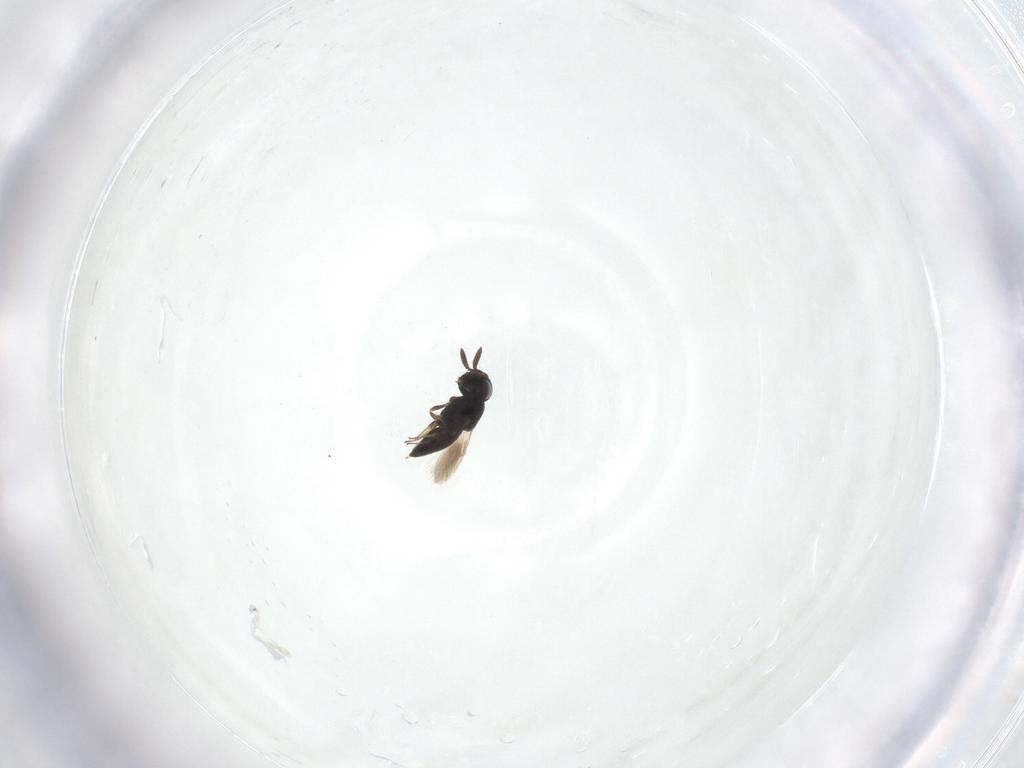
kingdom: Animalia
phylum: Arthropoda
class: Insecta
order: Hymenoptera
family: Scelionidae
